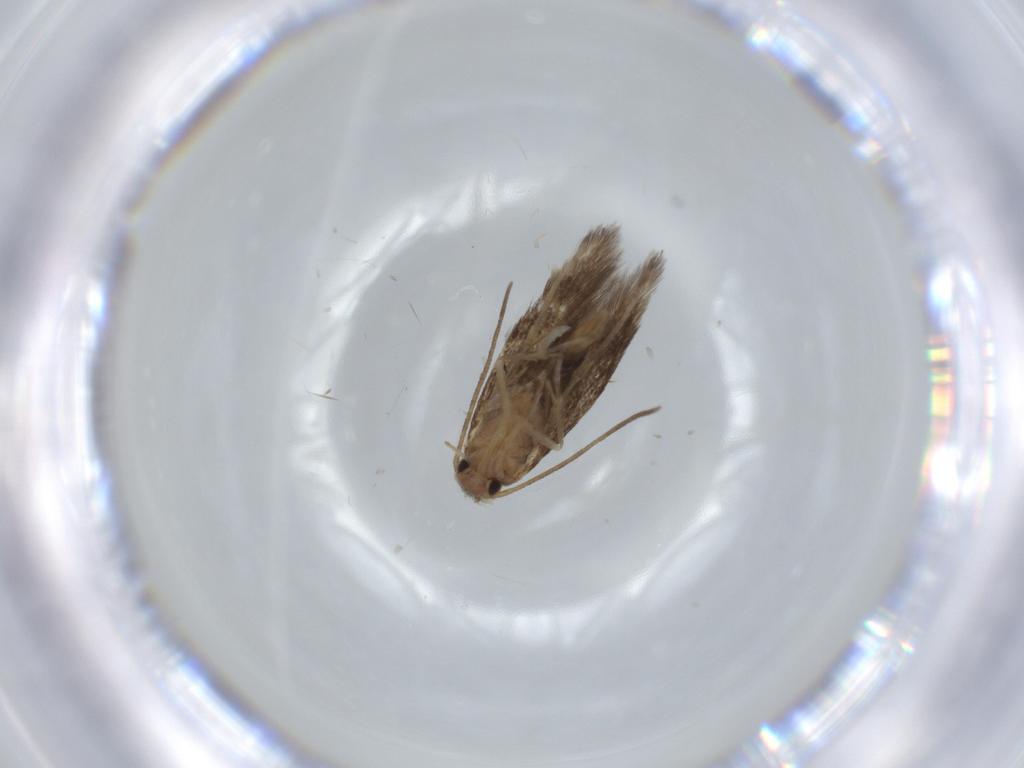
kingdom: Animalia
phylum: Arthropoda
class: Insecta
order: Lepidoptera
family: Cosmopterigidae
